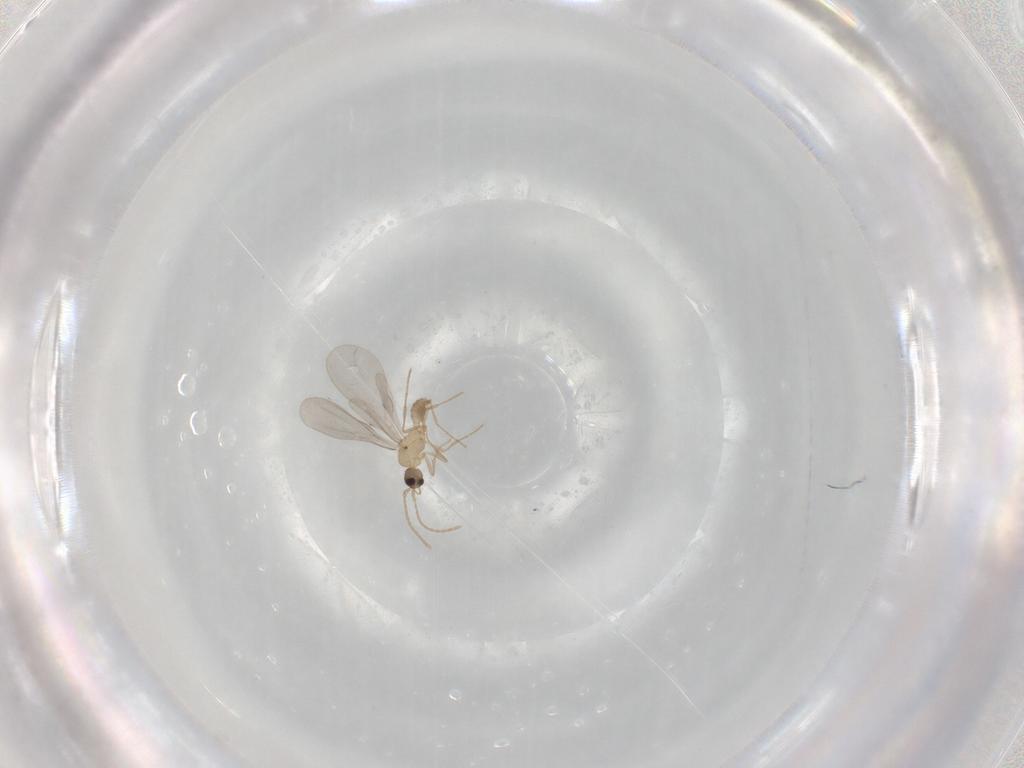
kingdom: Animalia
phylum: Arthropoda
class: Insecta
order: Hymenoptera
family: Formicidae
